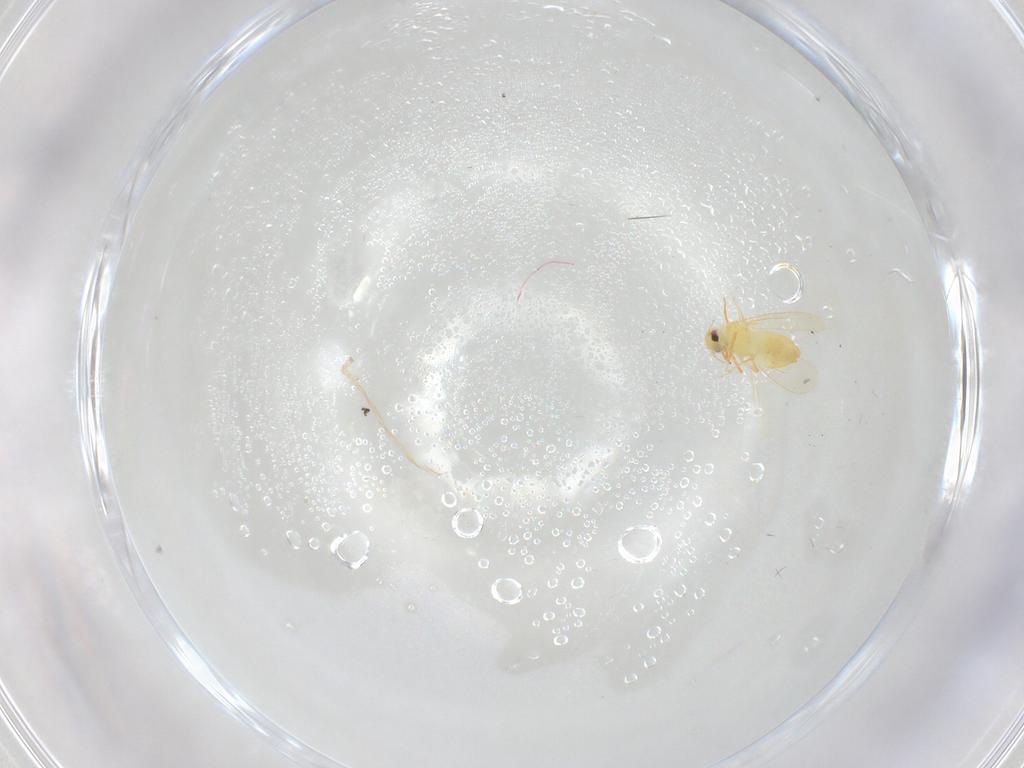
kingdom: Animalia
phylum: Arthropoda
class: Insecta
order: Hemiptera
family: Aleyrodidae
